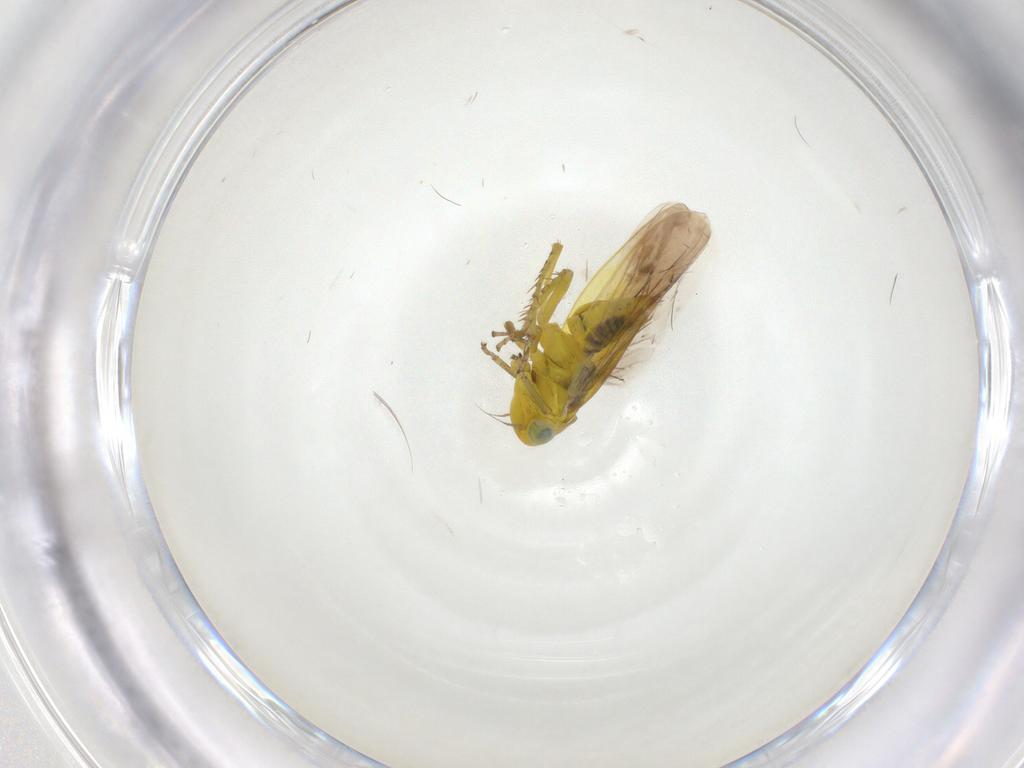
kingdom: Animalia
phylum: Arthropoda
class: Insecta
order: Hemiptera
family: Cicadellidae
